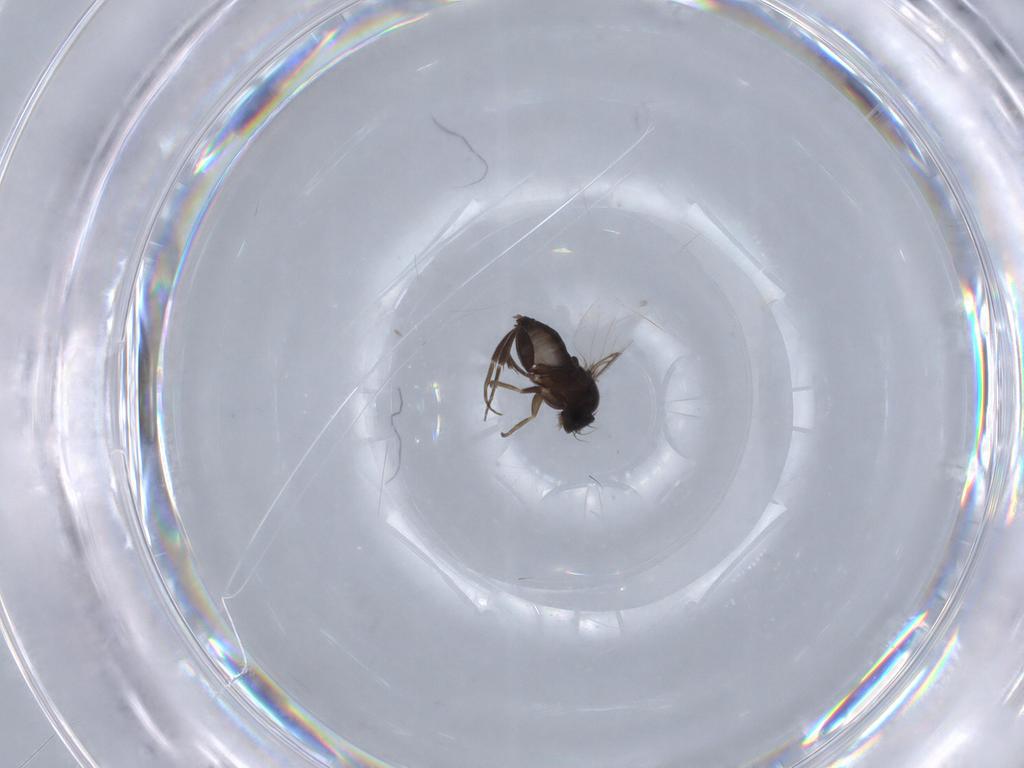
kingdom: Animalia
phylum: Arthropoda
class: Insecta
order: Diptera
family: Phoridae
